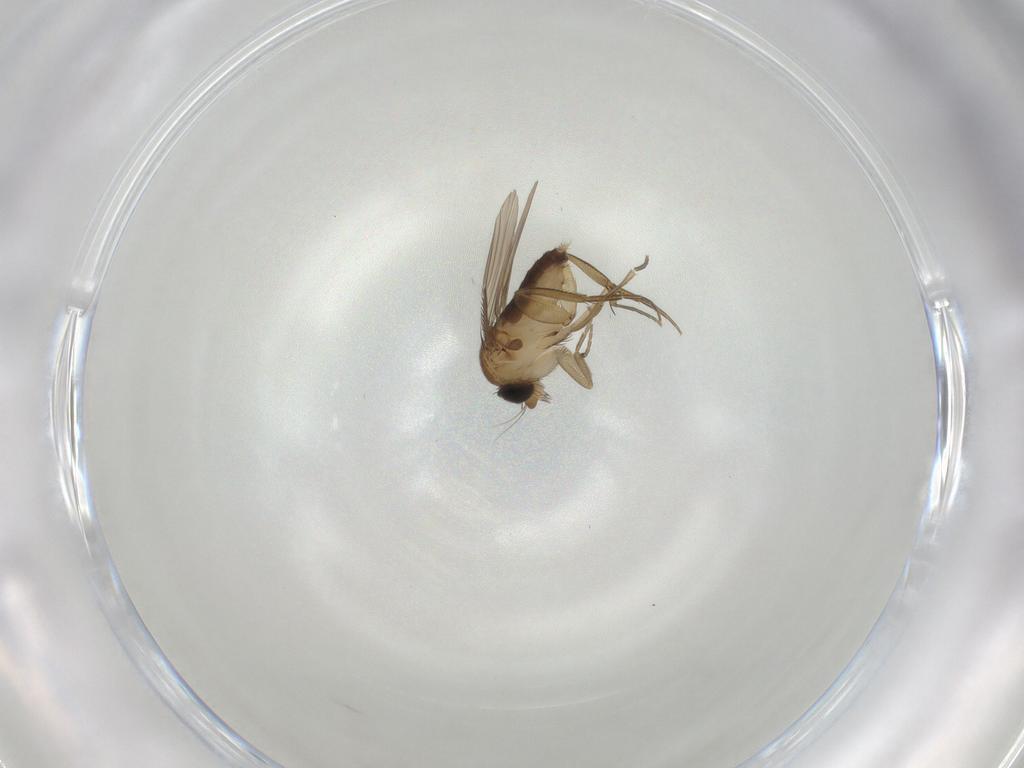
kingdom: Animalia
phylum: Arthropoda
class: Insecta
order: Diptera
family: Phoridae
